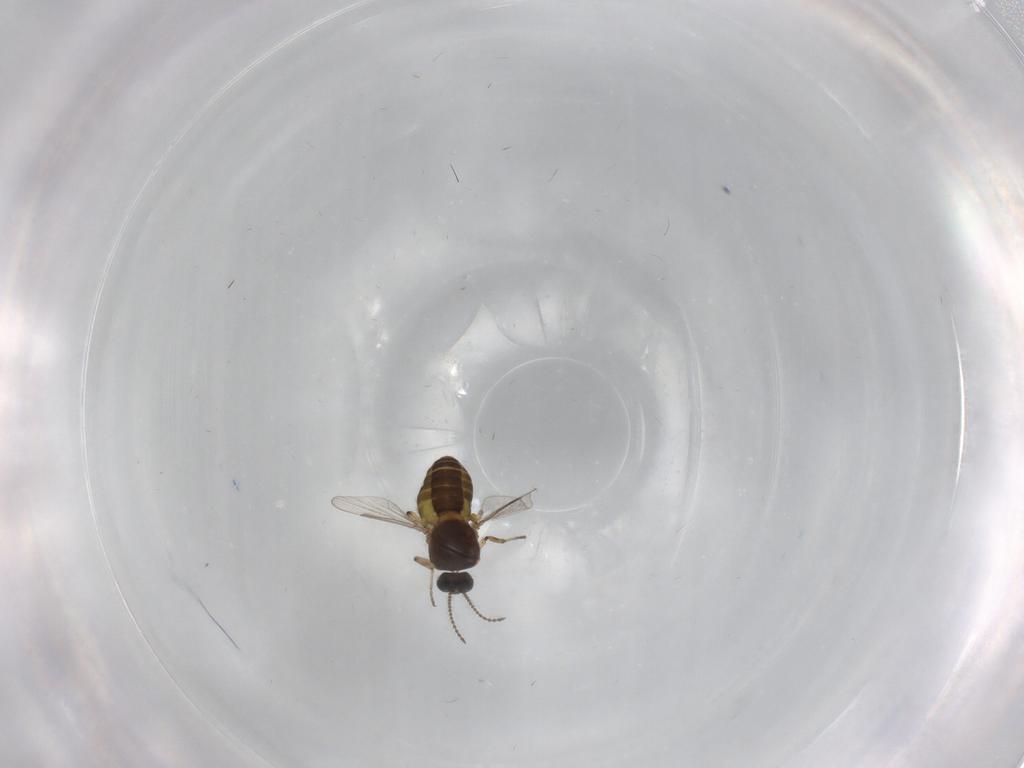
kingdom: Animalia
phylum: Arthropoda
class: Insecta
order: Diptera
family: Ceratopogonidae
